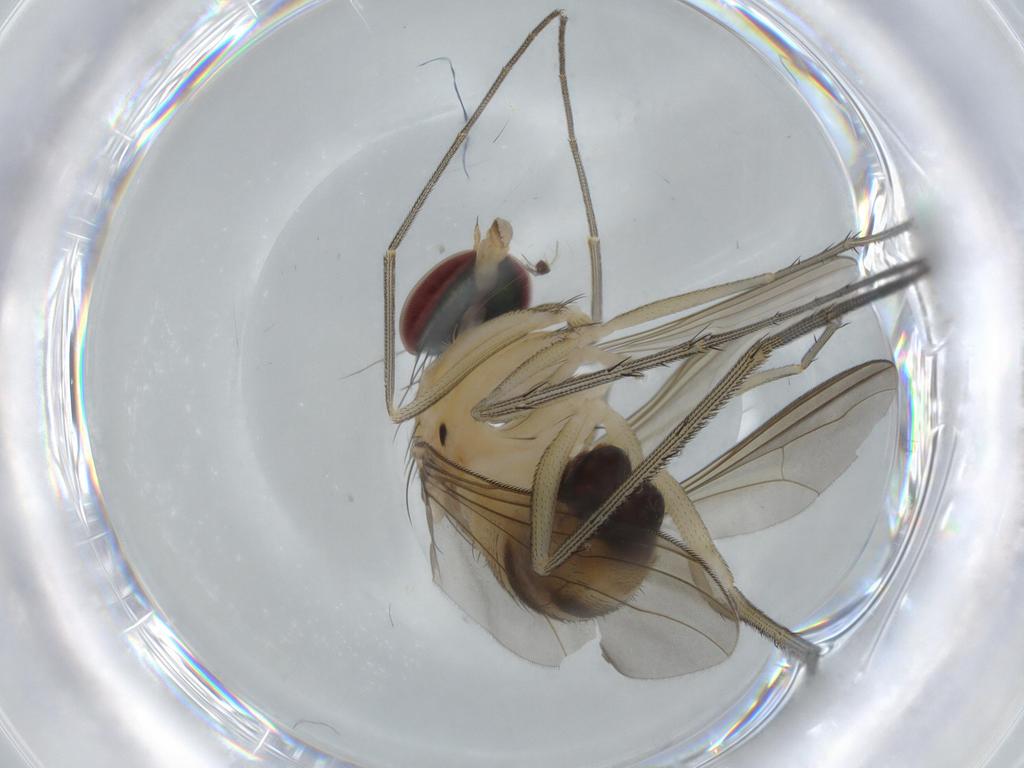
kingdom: Animalia
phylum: Arthropoda
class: Insecta
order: Diptera
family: Dolichopodidae
